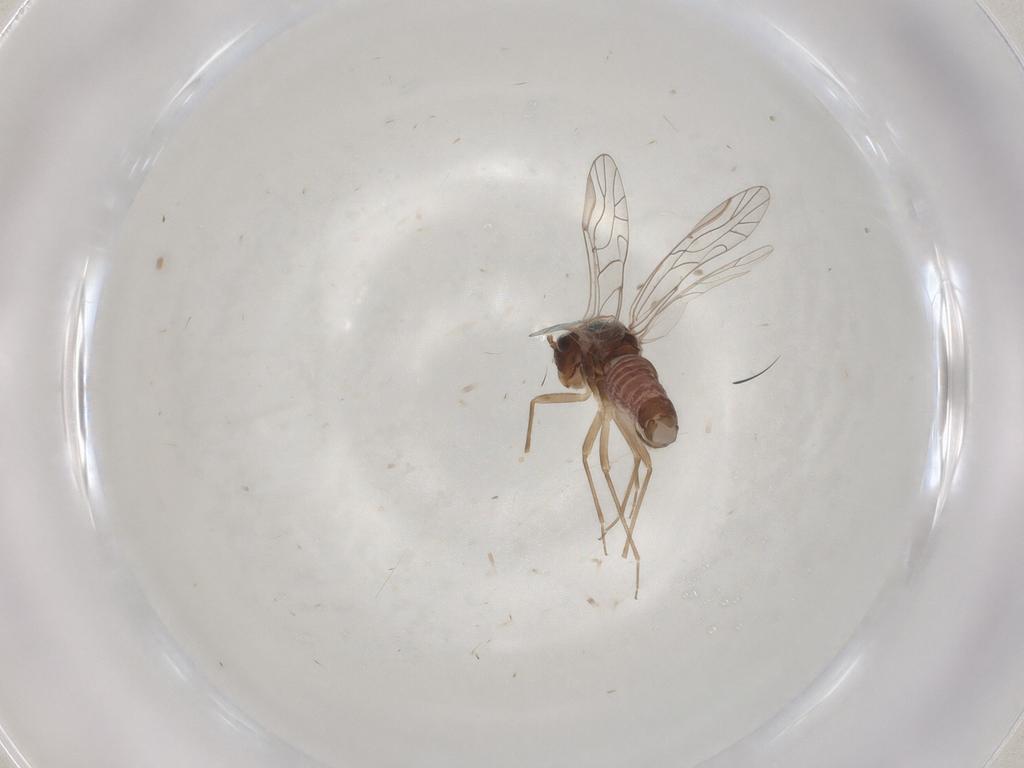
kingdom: Animalia
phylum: Arthropoda
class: Insecta
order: Psocodea
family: Lachesillidae
